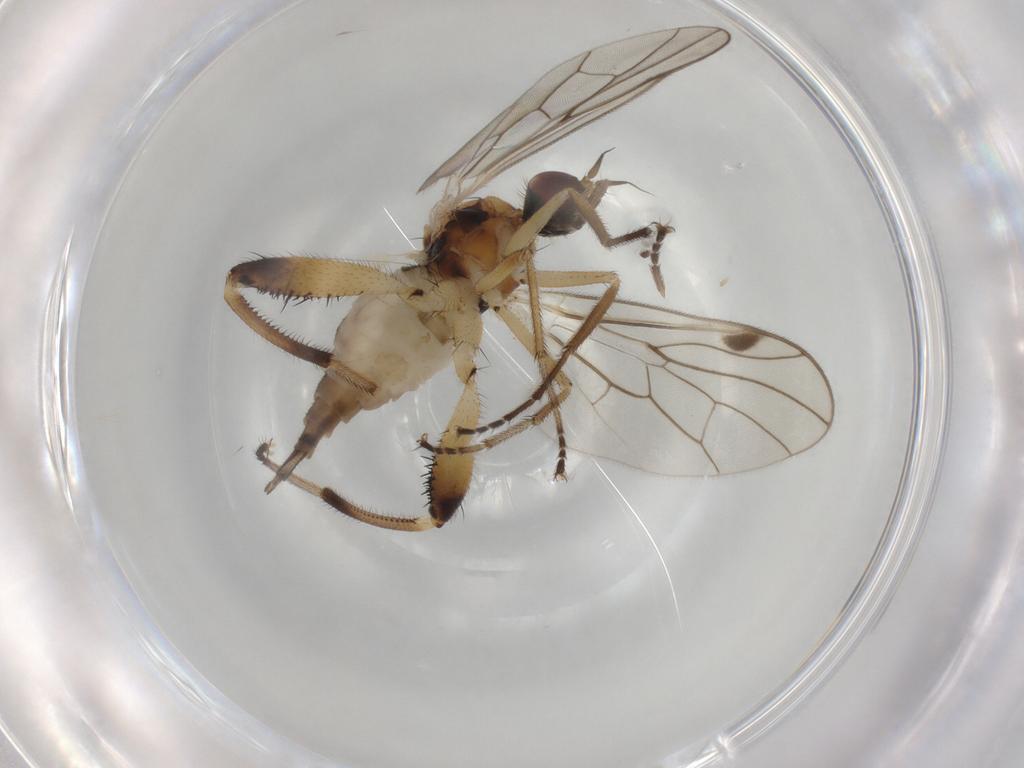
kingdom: Animalia
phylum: Arthropoda
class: Insecta
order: Diptera
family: Hybotidae
